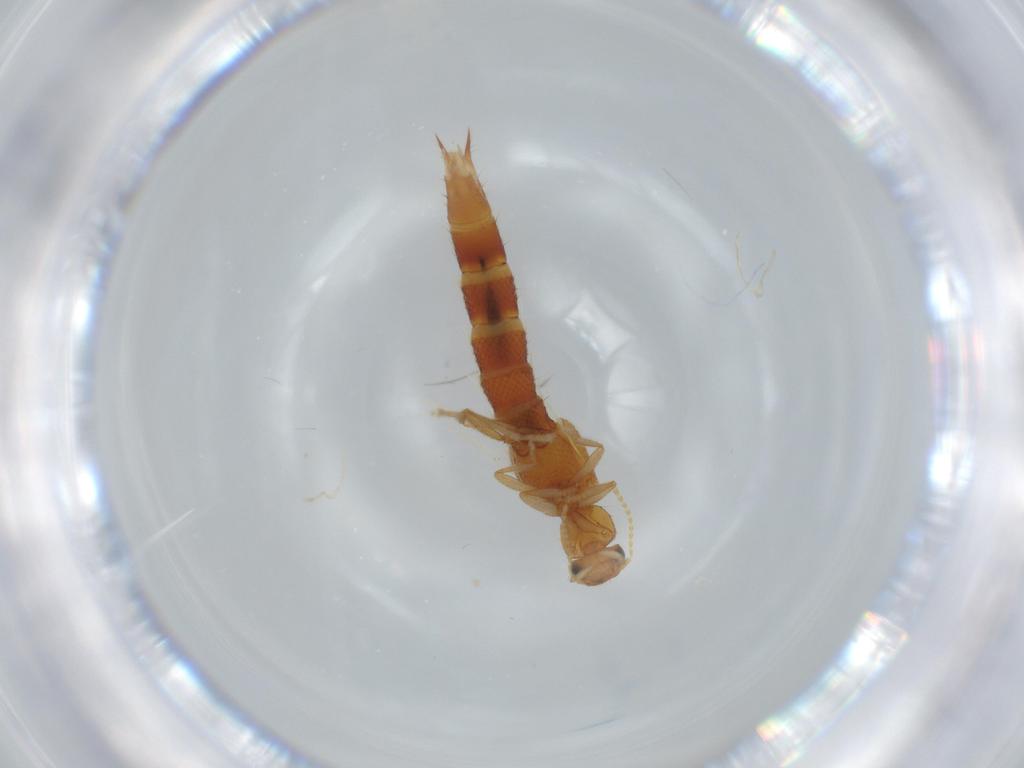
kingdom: Animalia
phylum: Arthropoda
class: Insecta
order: Coleoptera
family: Staphylinidae
